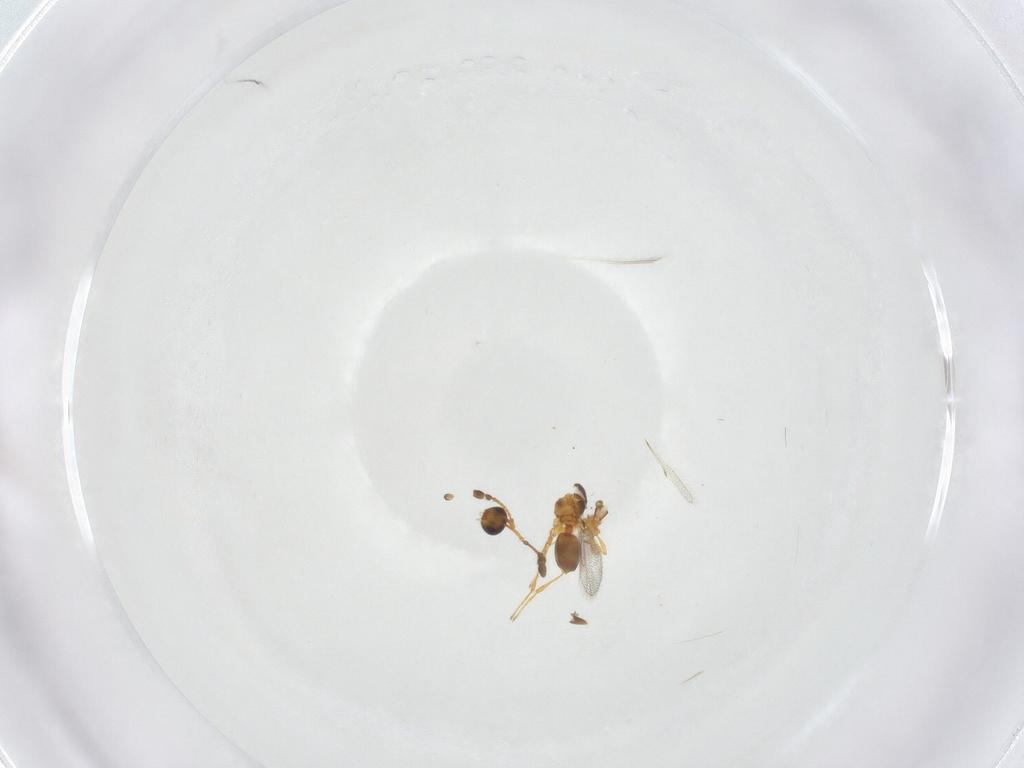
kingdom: Animalia
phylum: Arthropoda
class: Insecta
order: Hymenoptera
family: Diapriidae
